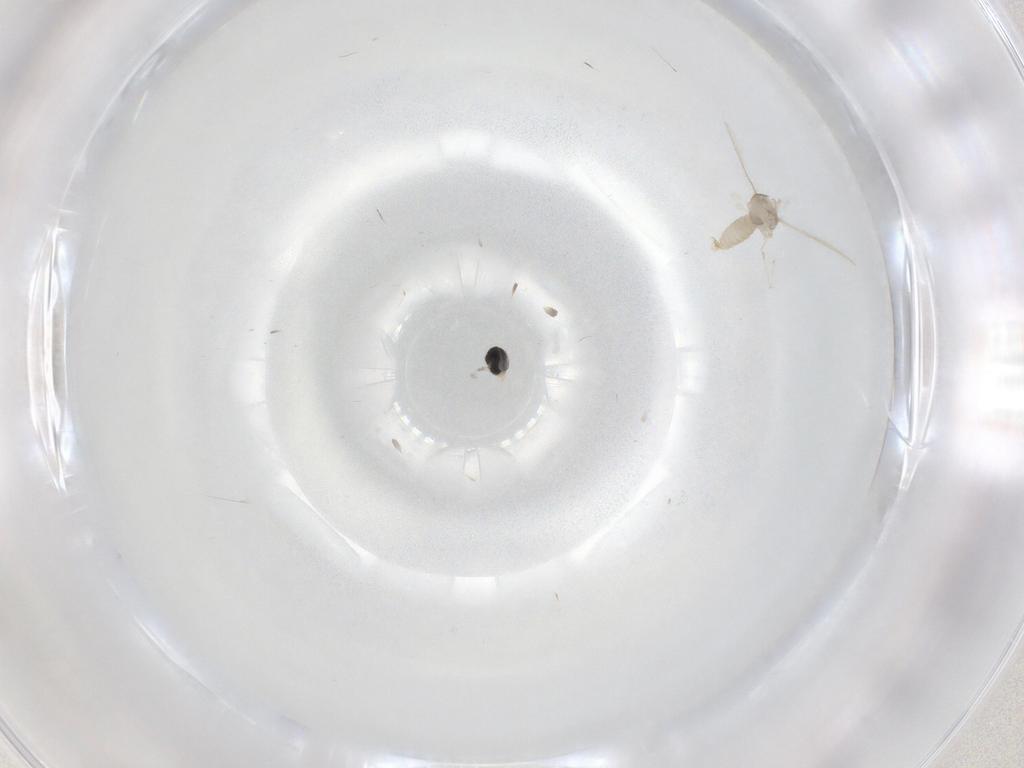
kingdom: Animalia
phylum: Arthropoda
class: Insecta
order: Diptera
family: Cecidomyiidae
